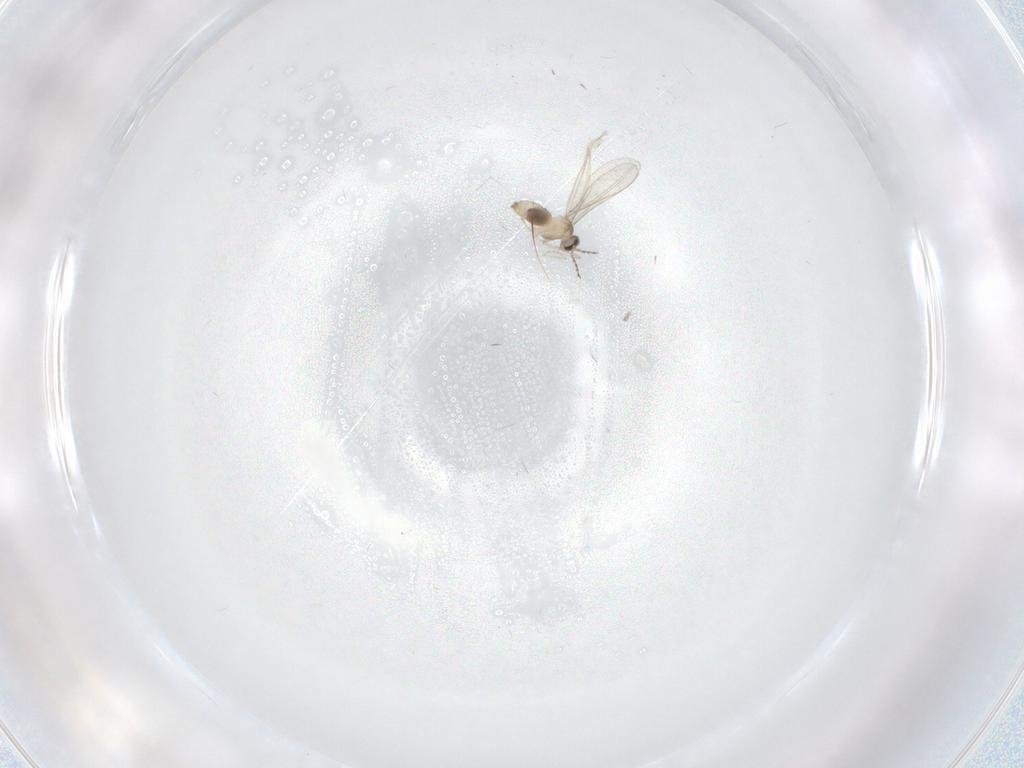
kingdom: Animalia
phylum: Arthropoda
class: Insecta
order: Diptera
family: Cecidomyiidae
